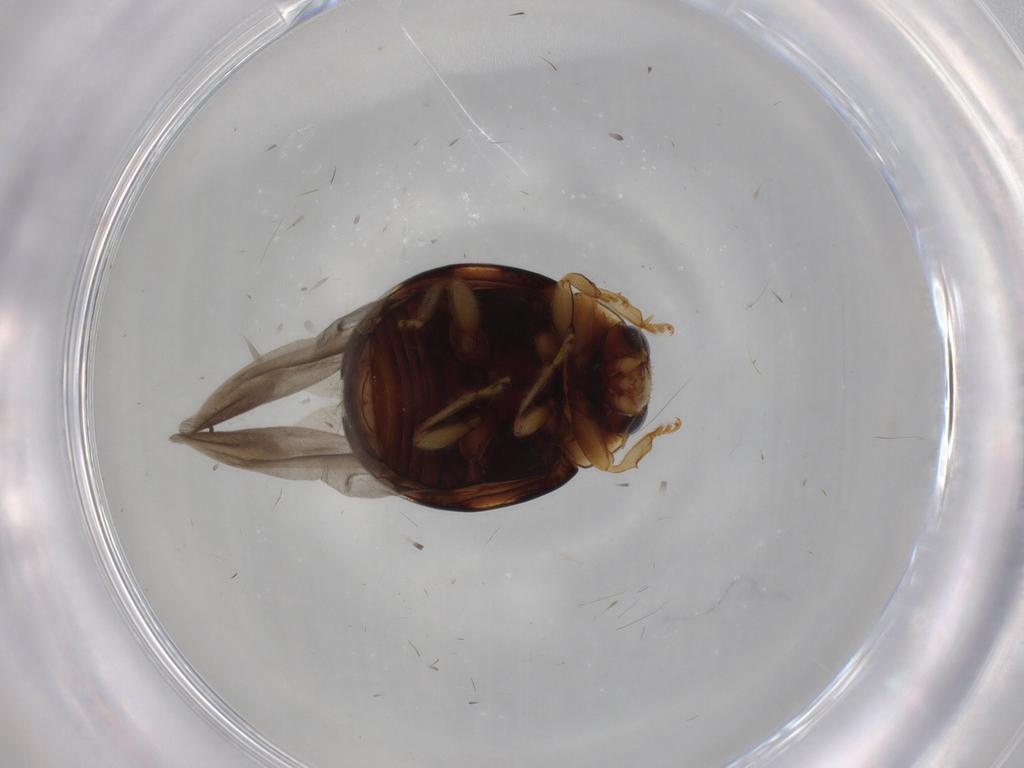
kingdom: Animalia
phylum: Arthropoda
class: Insecta
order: Coleoptera
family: Coccinellidae
